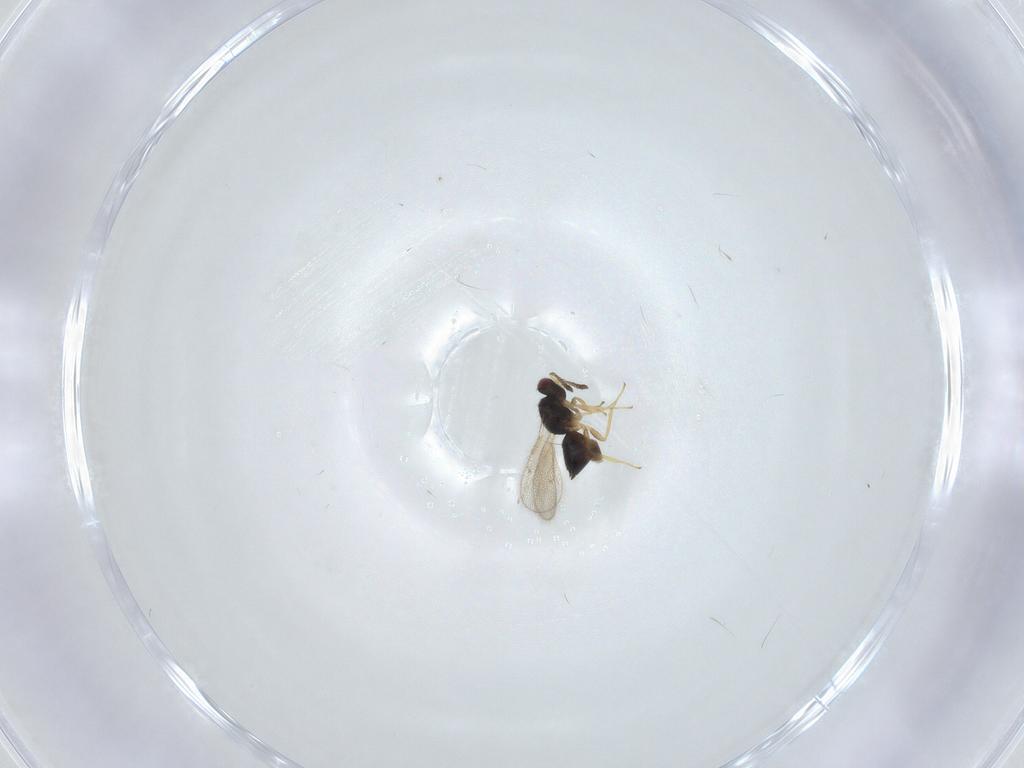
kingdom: Animalia
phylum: Arthropoda
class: Insecta
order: Hymenoptera
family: Tetracampidae
